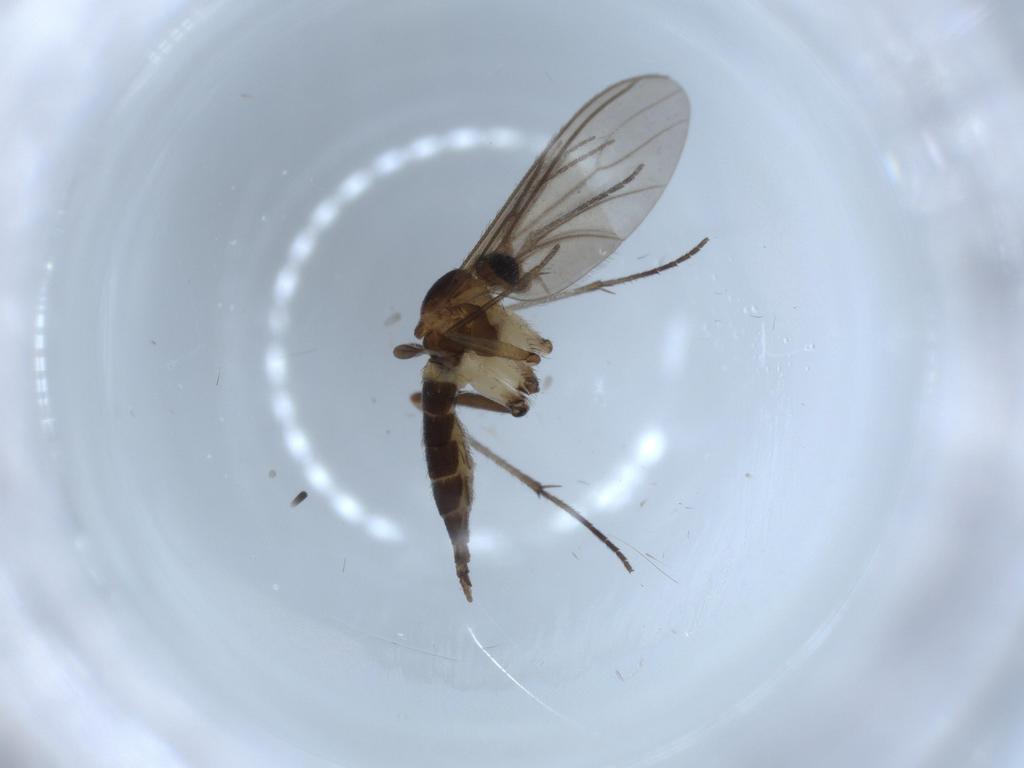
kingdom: Animalia
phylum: Arthropoda
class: Insecta
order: Diptera
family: Sciaridae
